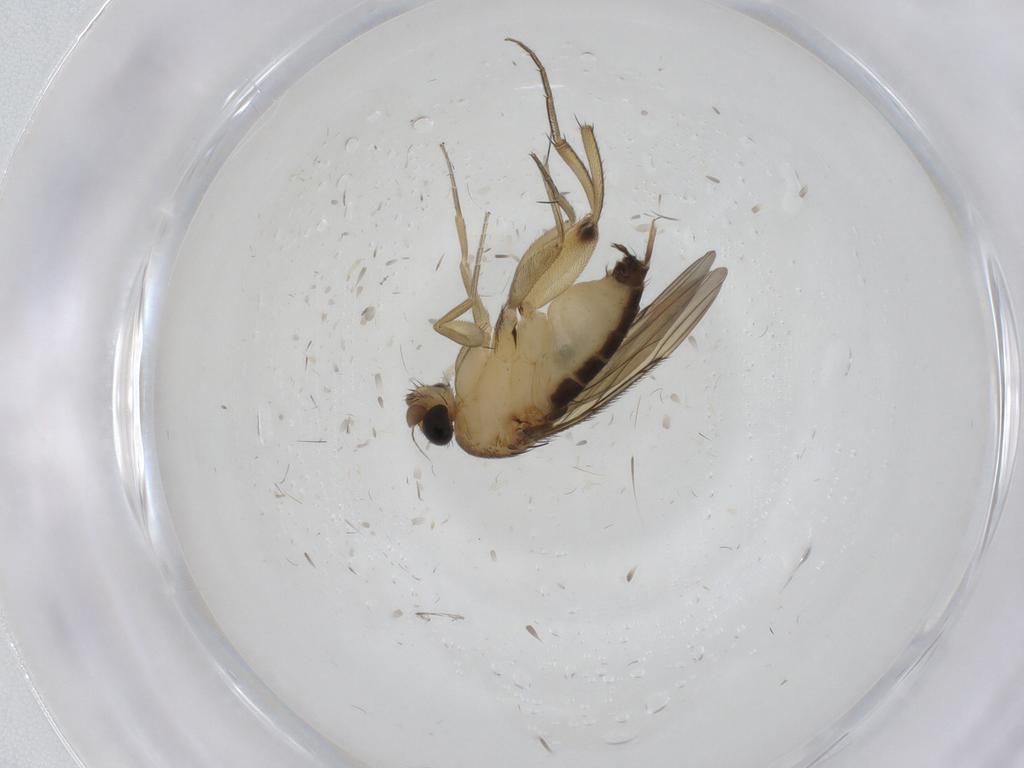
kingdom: Animalia
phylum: Arthropoda
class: Insecta
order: Diptera
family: Phoridae
